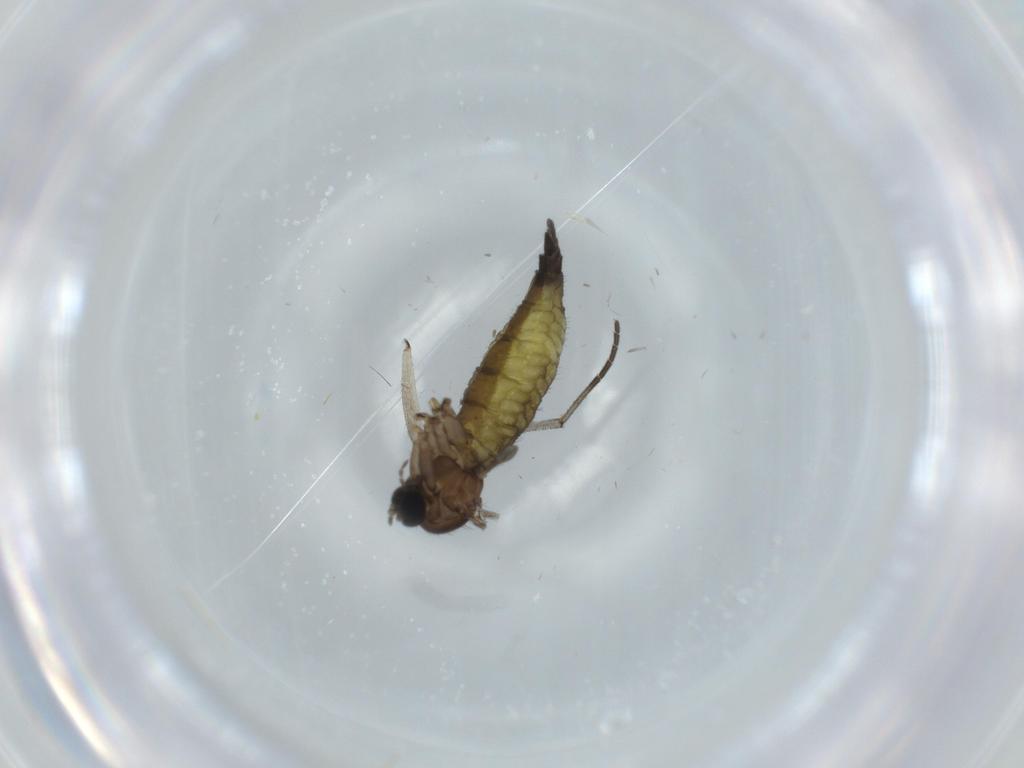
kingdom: Animalia
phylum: Arthropoda
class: Insecta
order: Diptera
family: Sciaridae
